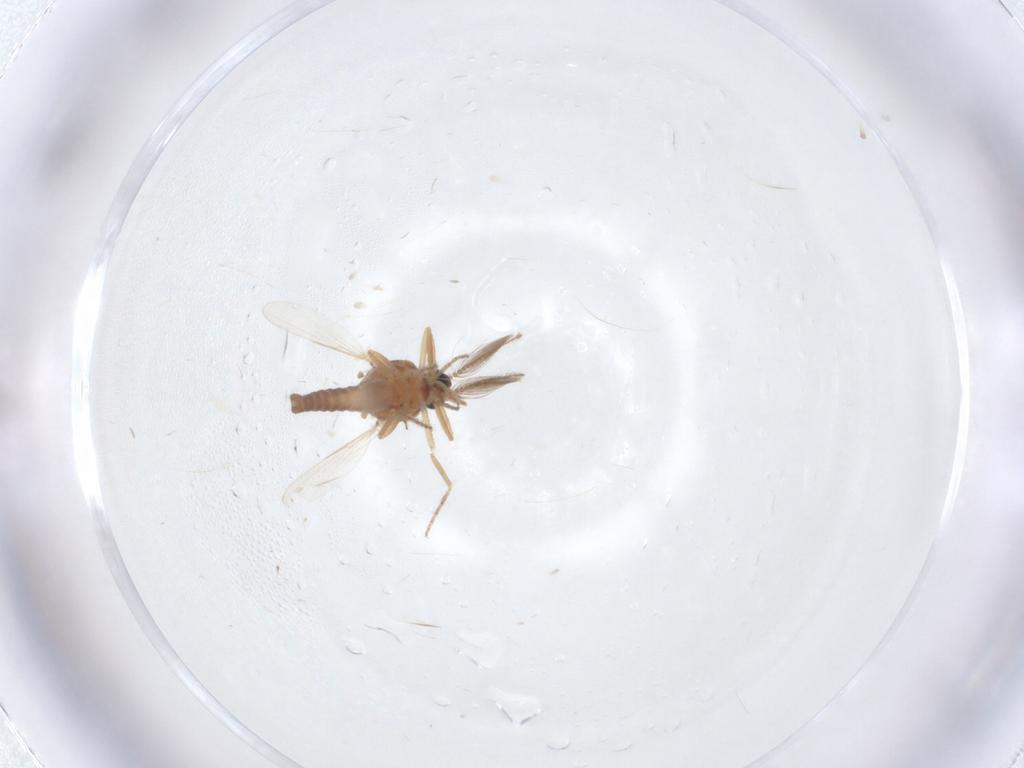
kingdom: Animalia
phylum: Arthropoda
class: Insecta
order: Diptera
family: Ceratopogonidae
